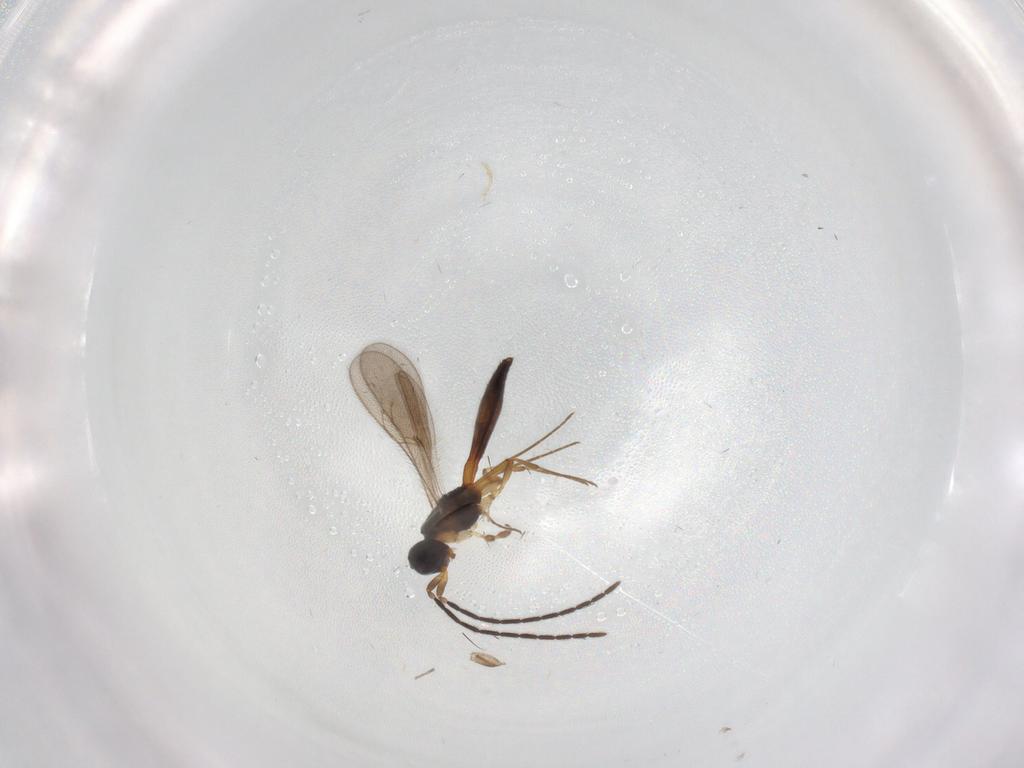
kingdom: Animalia
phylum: Arthropoda
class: Insecta
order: Hymenoptera
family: Scelionidae
